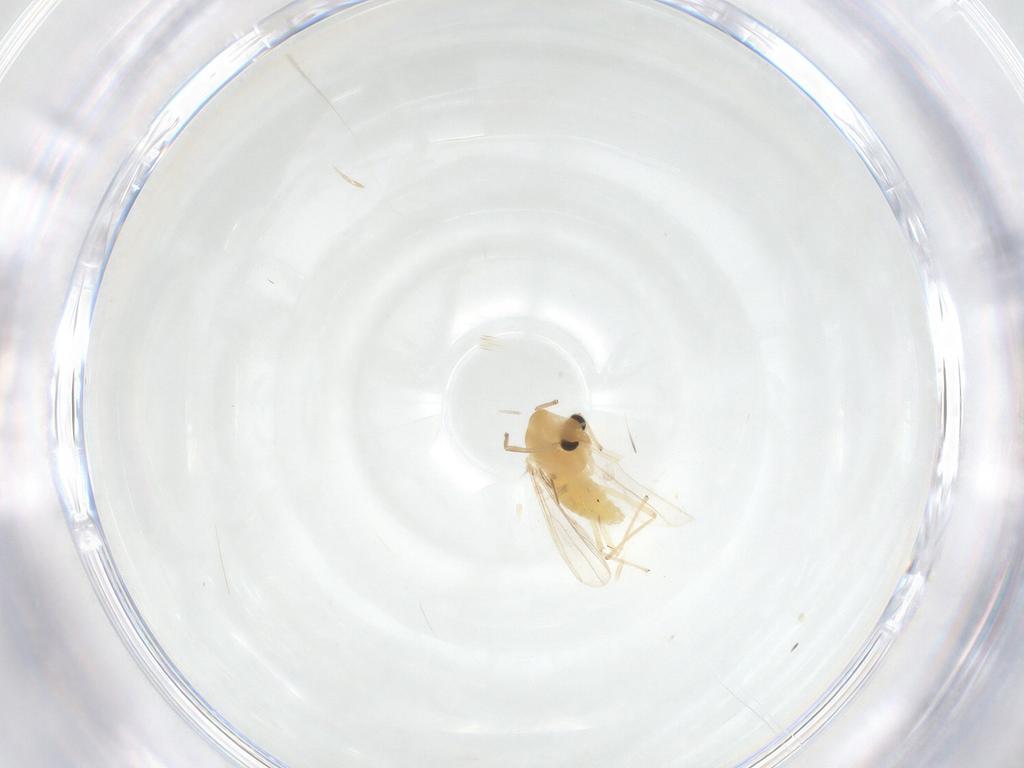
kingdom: Animalia
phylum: Arthropoda
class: Insecta
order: Diptera
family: Chironomidae
